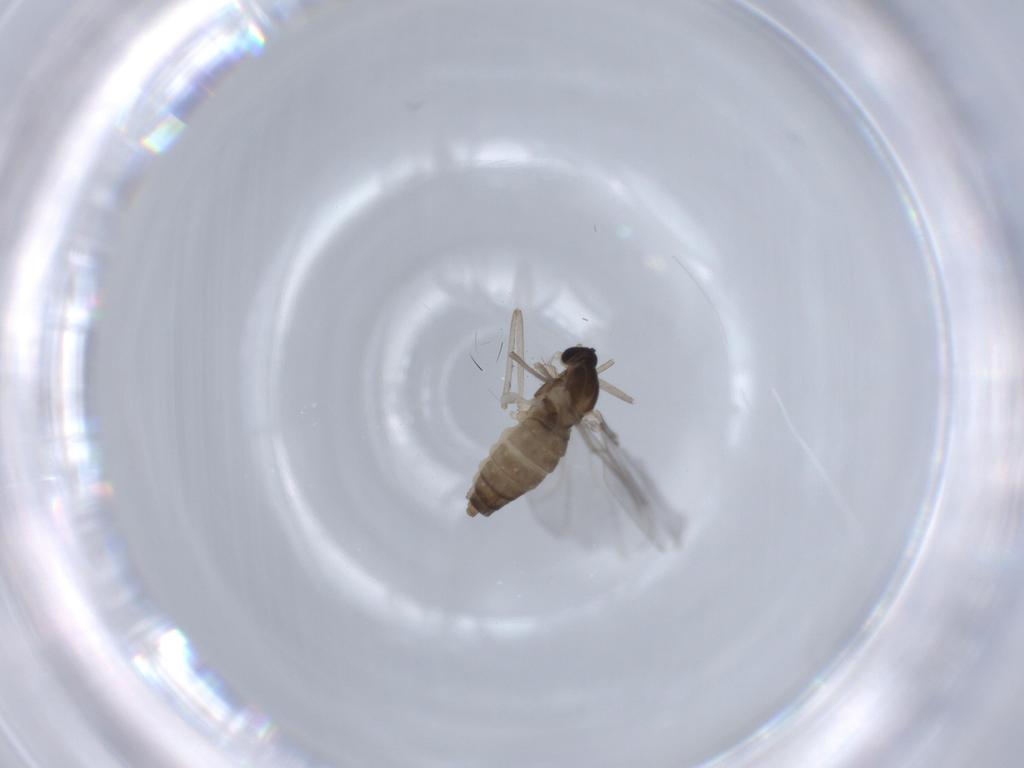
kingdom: Animalia
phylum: Arthropoda
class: Insecta
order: Diptera
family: Cecidomyiidae
